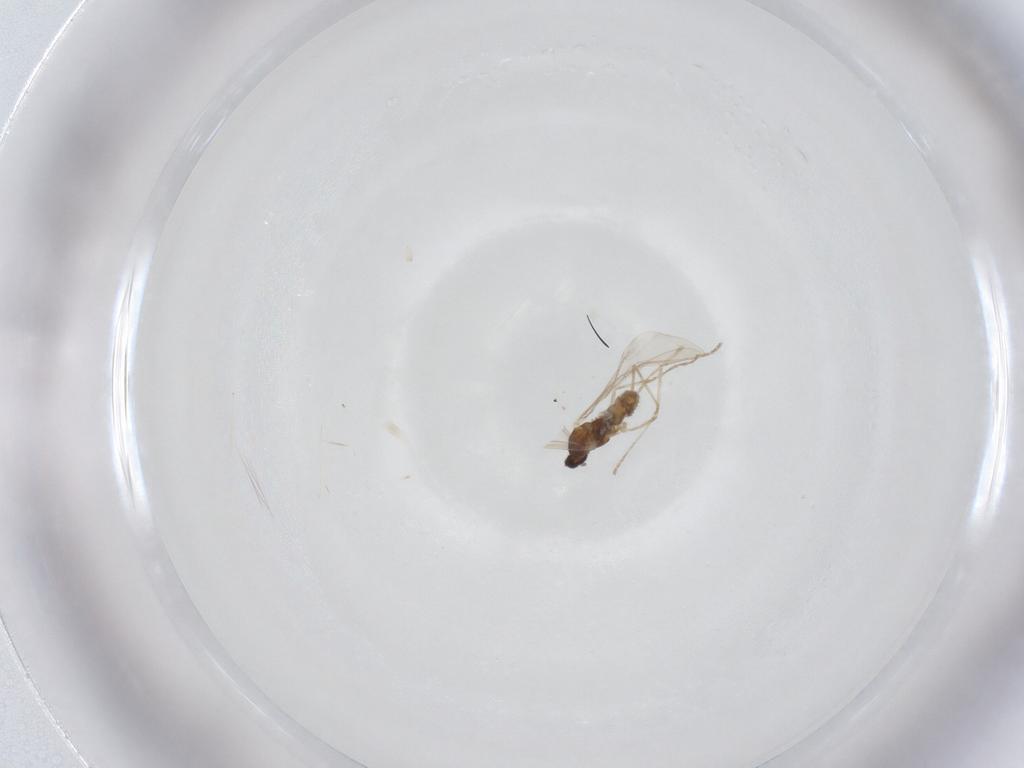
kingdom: Animalia
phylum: Arthropoda
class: Insecta
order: Diptera
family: Cecidomyiidae
